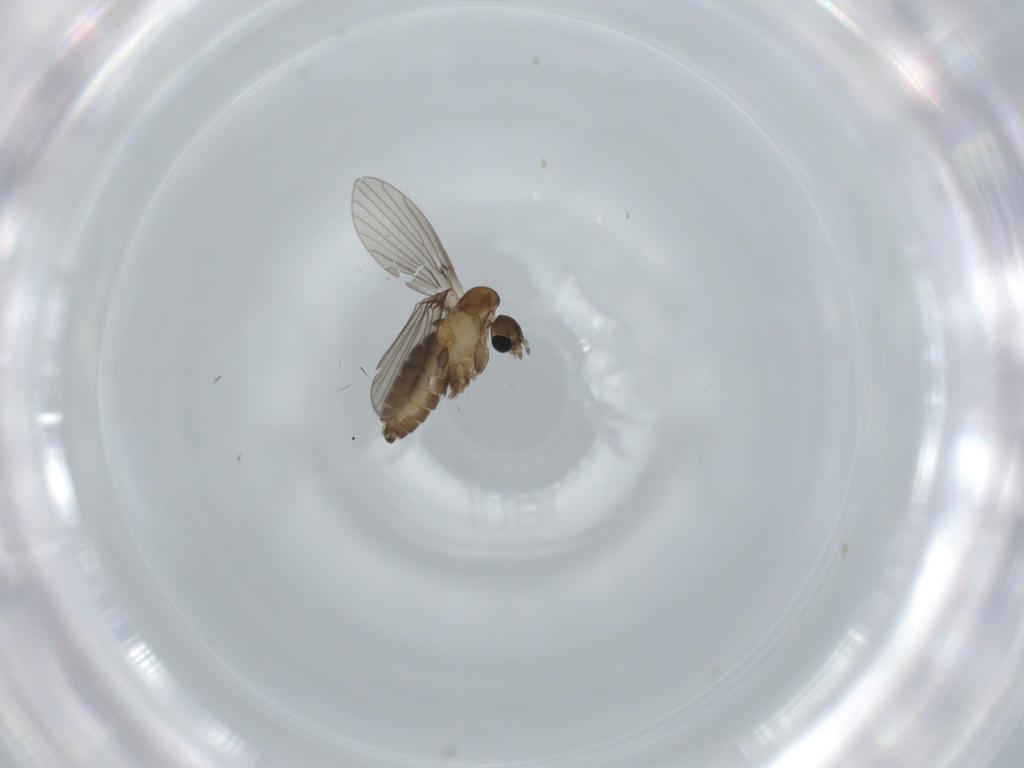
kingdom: Animalia
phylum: Arthropoda
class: Insecta
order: Diptera
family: Psychodidae
